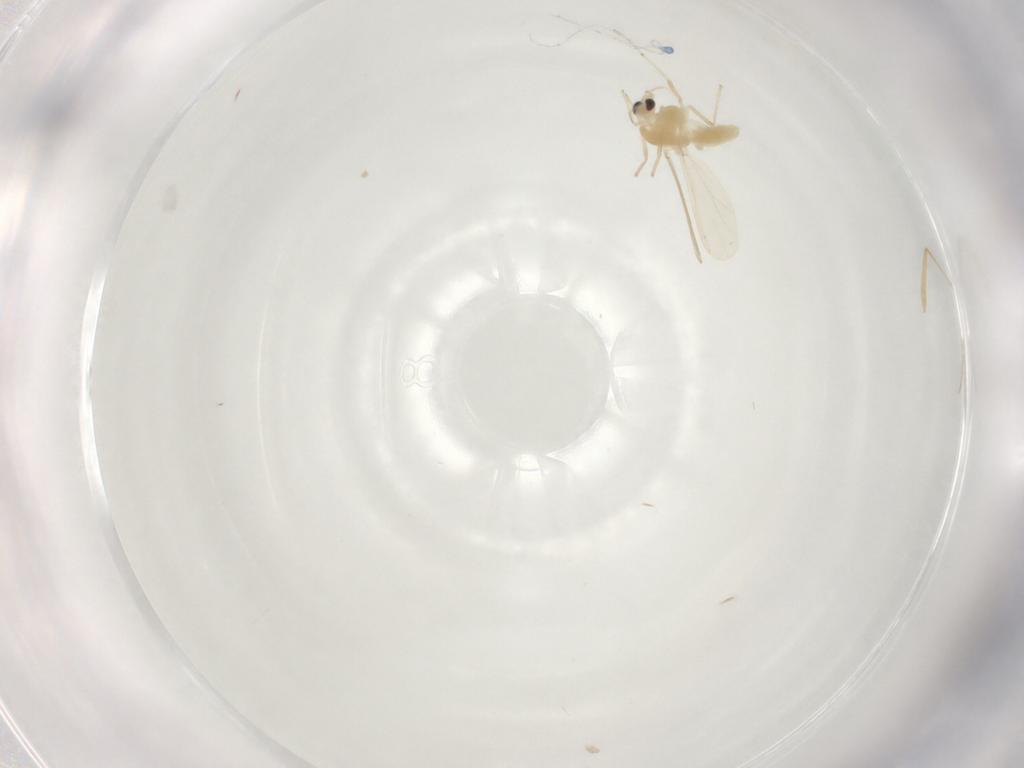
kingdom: Animalia
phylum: Arthropoda
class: Insecta
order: Diptera
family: Chironomidae
